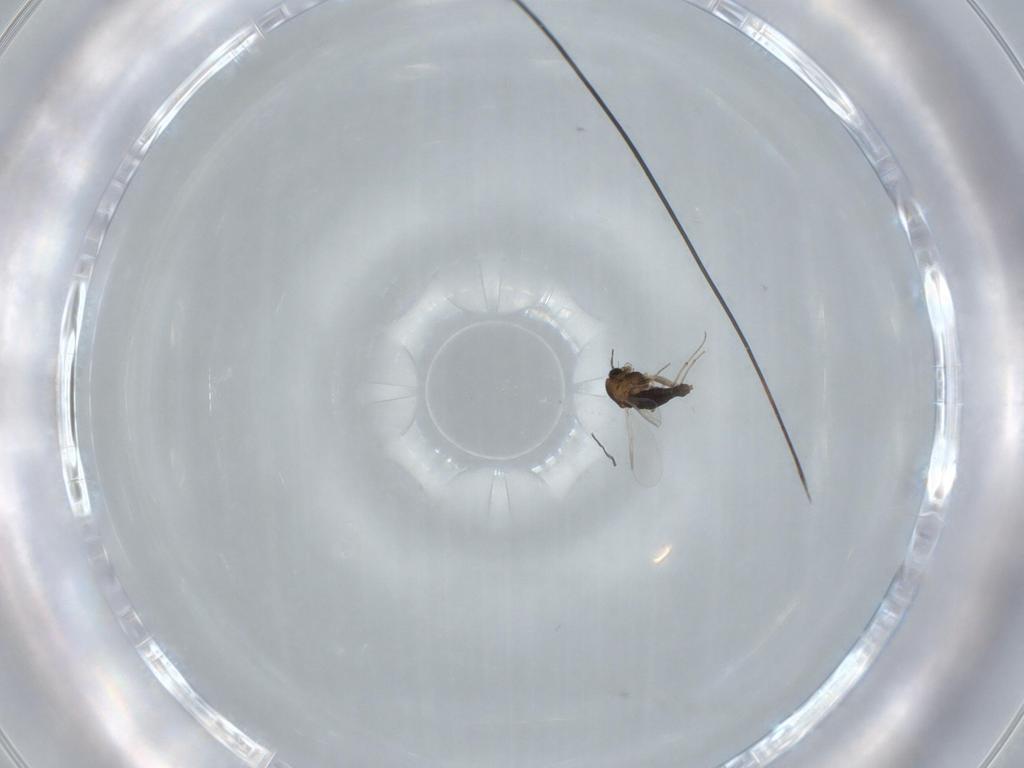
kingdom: Animalia
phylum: Arthropoda
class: Insecta
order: Diptera
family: Chironomidae
